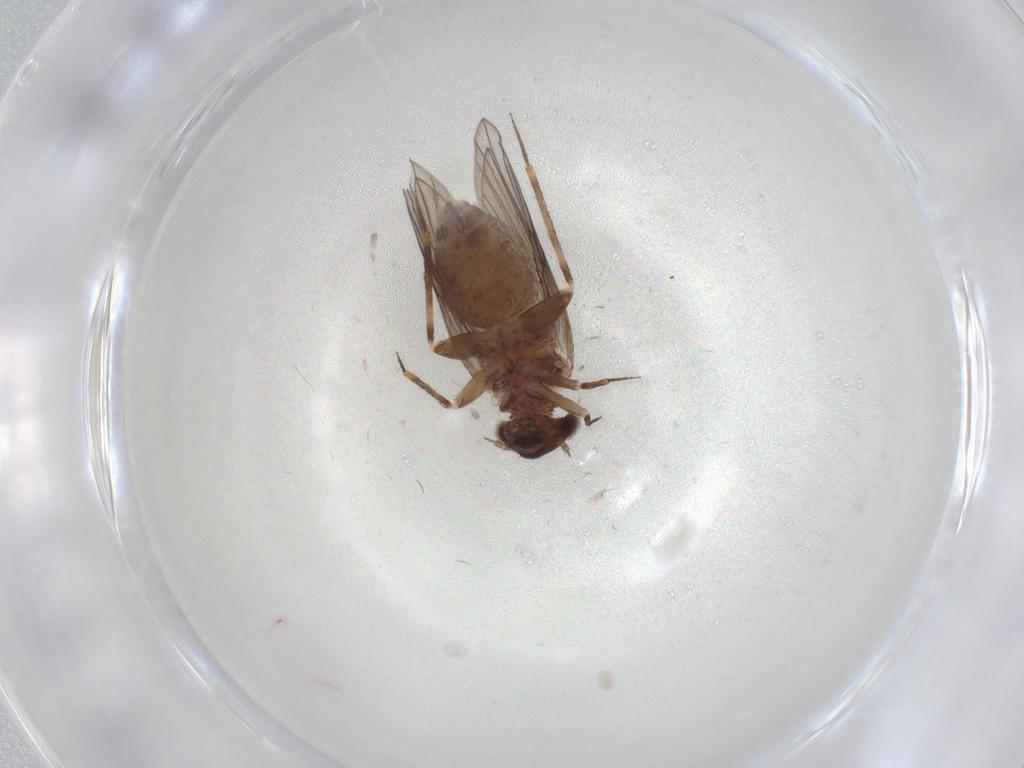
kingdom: Animalia
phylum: Arthropoda
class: Insecta
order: Psocodea
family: Lepidopsocidae
